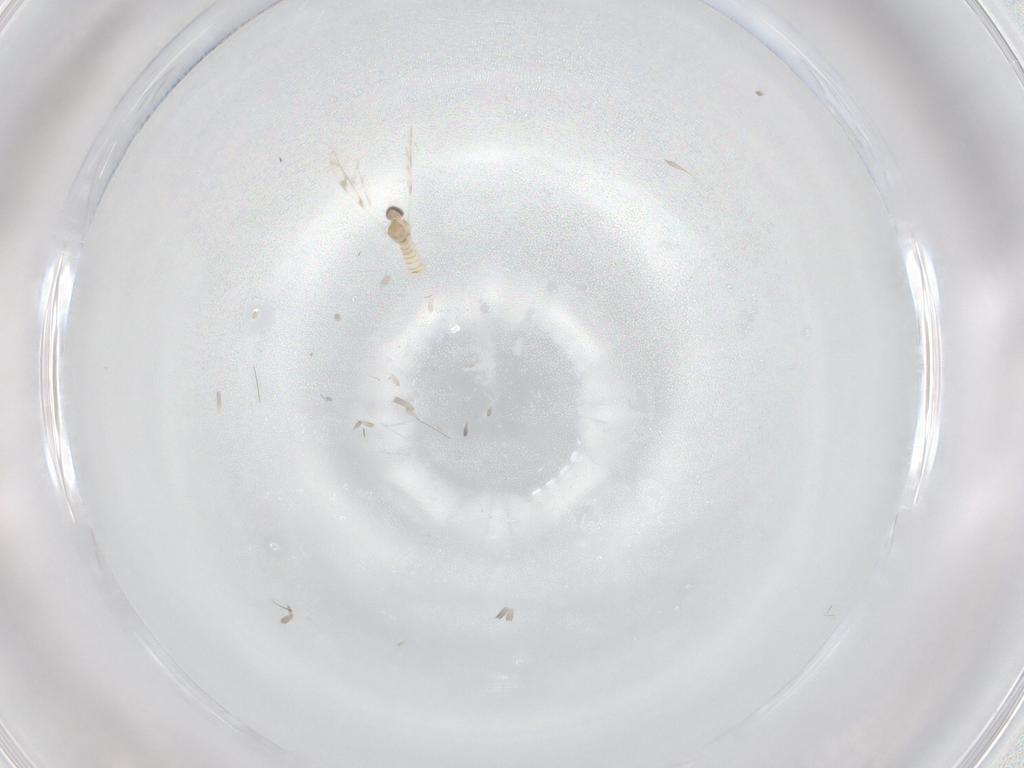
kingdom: Animalia
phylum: Arthropoda
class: Insecta
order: Diptera
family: Cecidomyiidae
